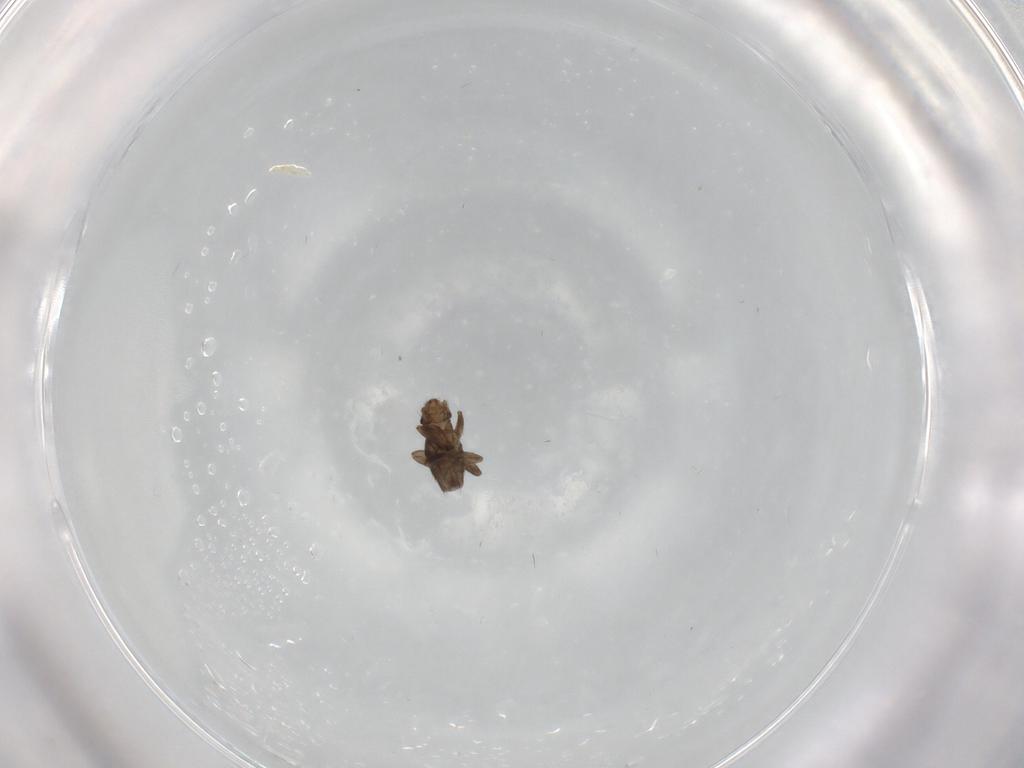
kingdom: Animalia
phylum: Arthropoda
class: Insecta
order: Diptera
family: Phoridae
